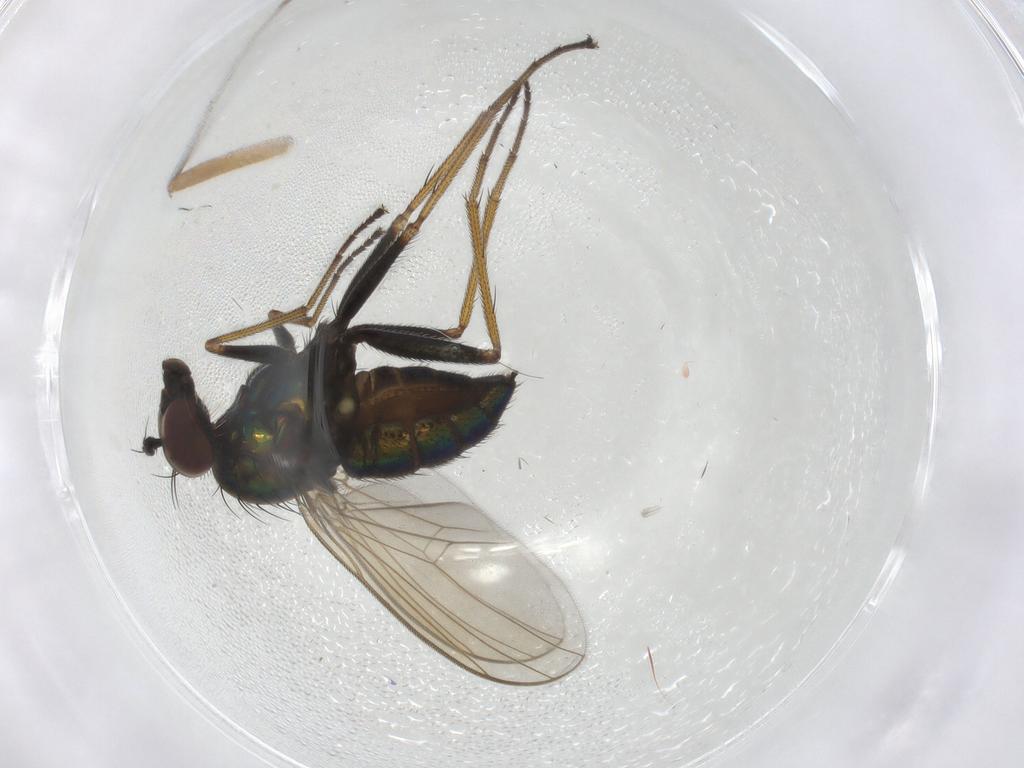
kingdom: Animalia
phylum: Arthropoda
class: Insecta
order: Diptera
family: Dolichopodidae
